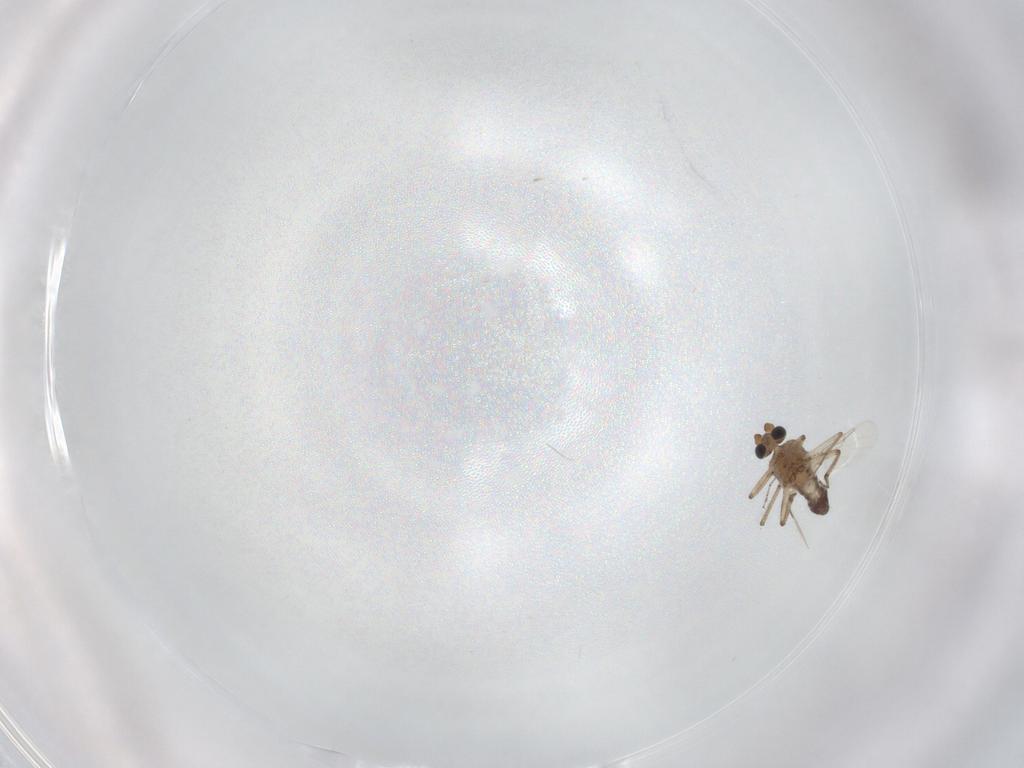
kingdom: Animalia
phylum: Arthropoda
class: Insecta
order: Diptera
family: Ceratopogonidae
